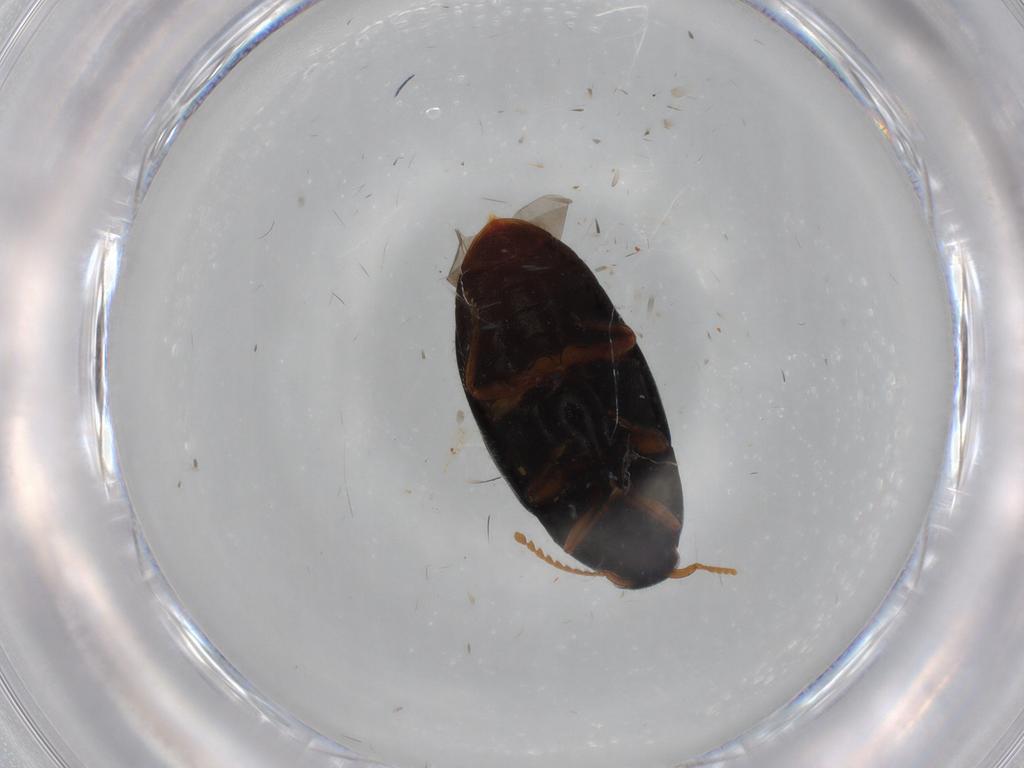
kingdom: Animalia
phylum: Arthropoda
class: Insecta
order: Coleoptera
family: Elateridae
